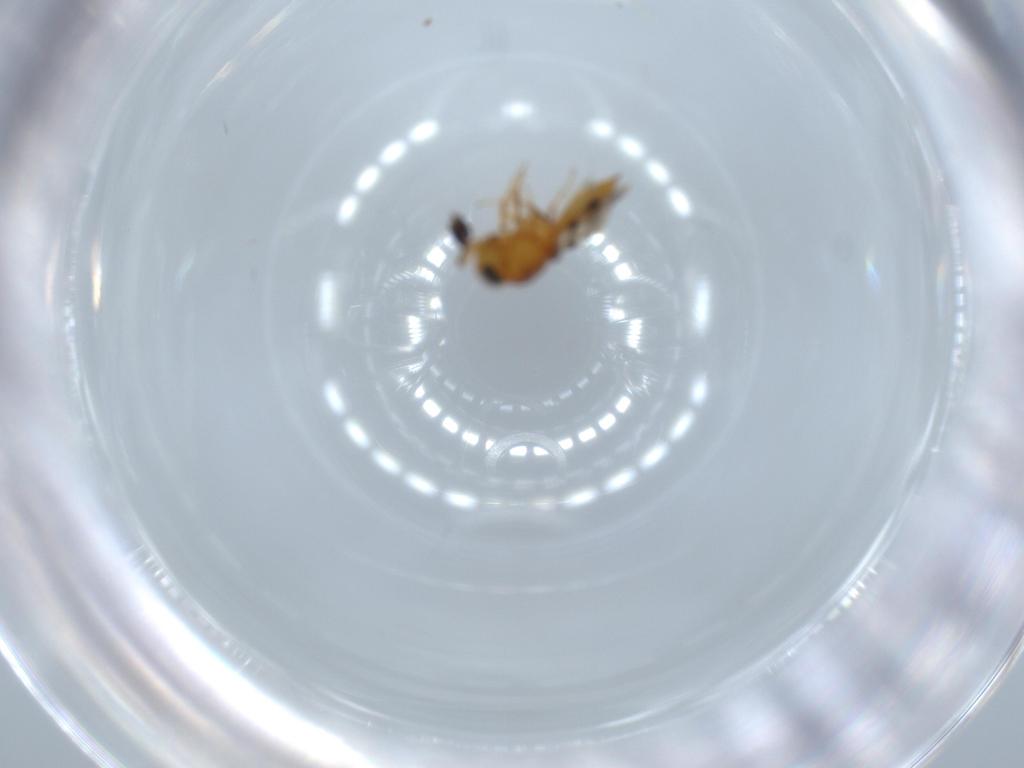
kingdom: Animalia
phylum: Arthropoda
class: Insecta
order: Hymenoptera
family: Scelionidae
